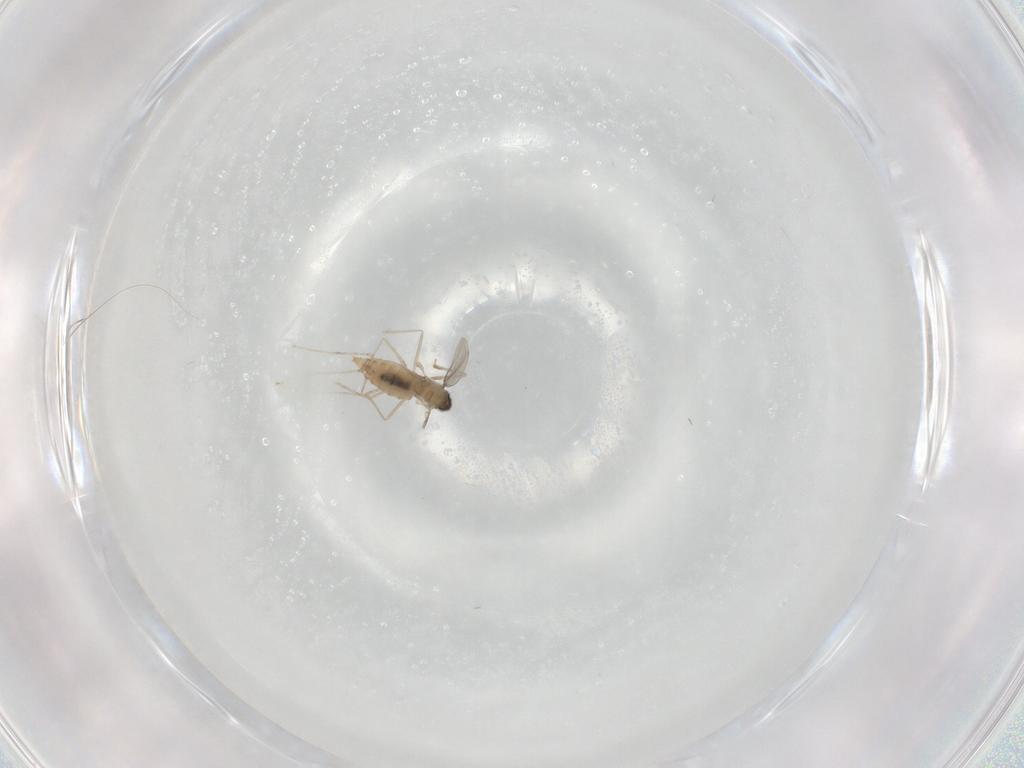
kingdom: Animalia
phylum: Arthropoda
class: Insecta
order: Diptera
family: Cecidomyiidae
